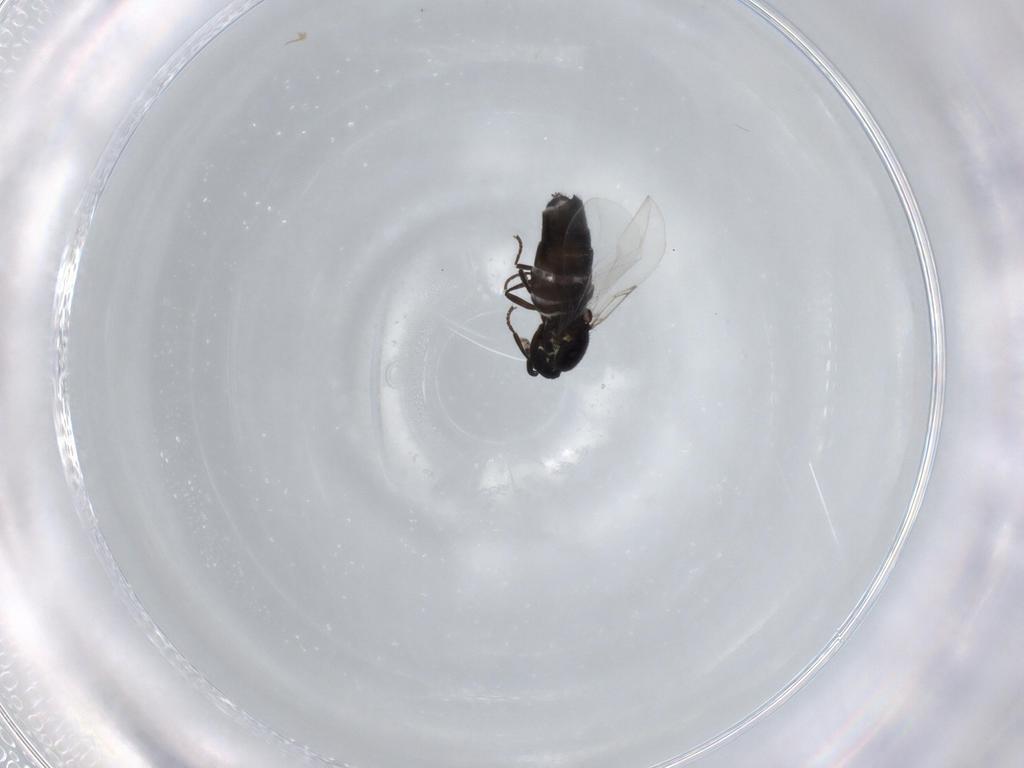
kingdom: Animalia
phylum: Arthropoda
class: Insecta
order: Diptera
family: Scatopsidae
